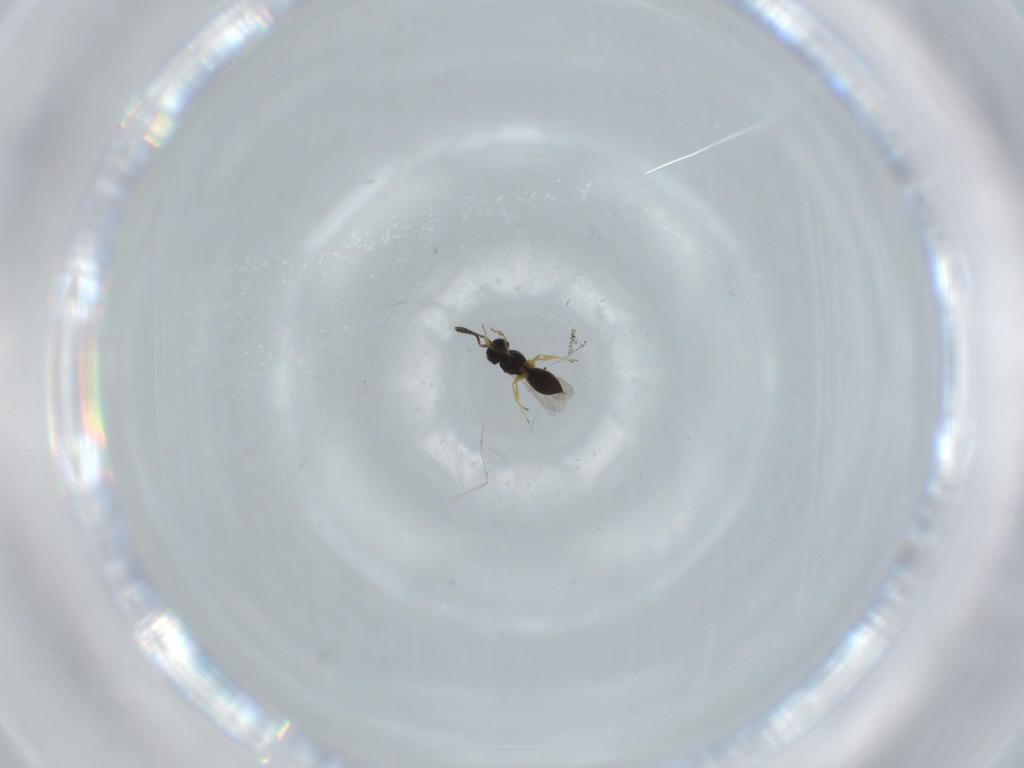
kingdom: Animalia
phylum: Arthropoda
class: Insecta
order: Hymenoptera
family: Scelionidae
